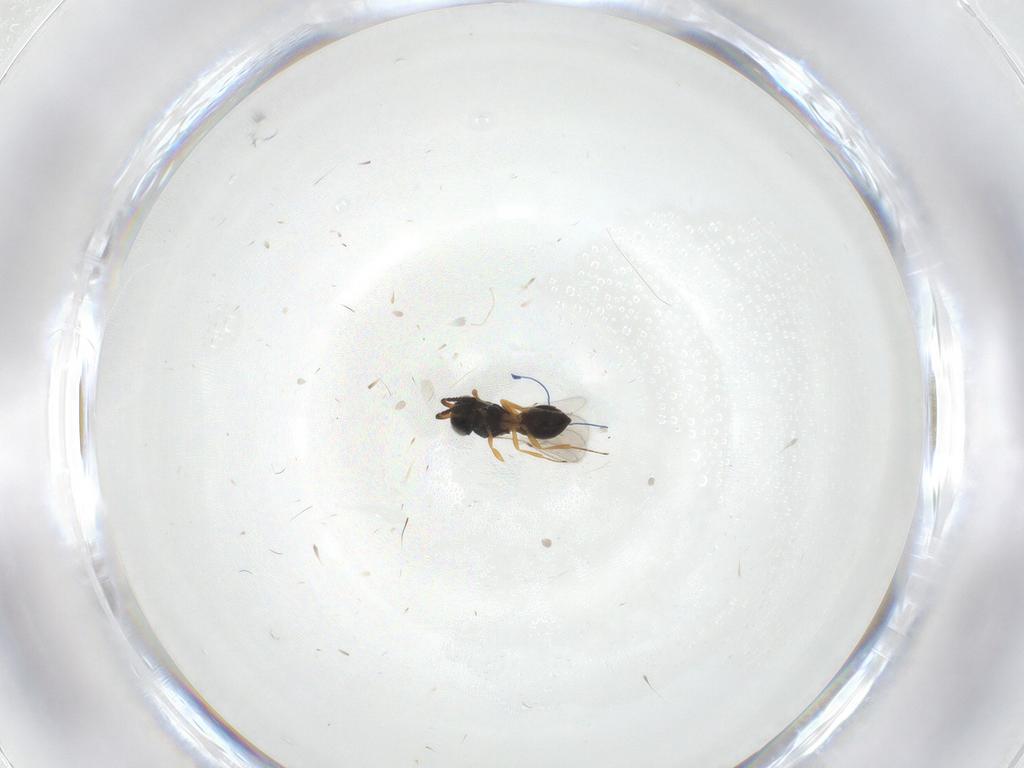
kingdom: Animalia
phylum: Arthropoda
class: Insecta
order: Hymenoptera
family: Scelionidae
